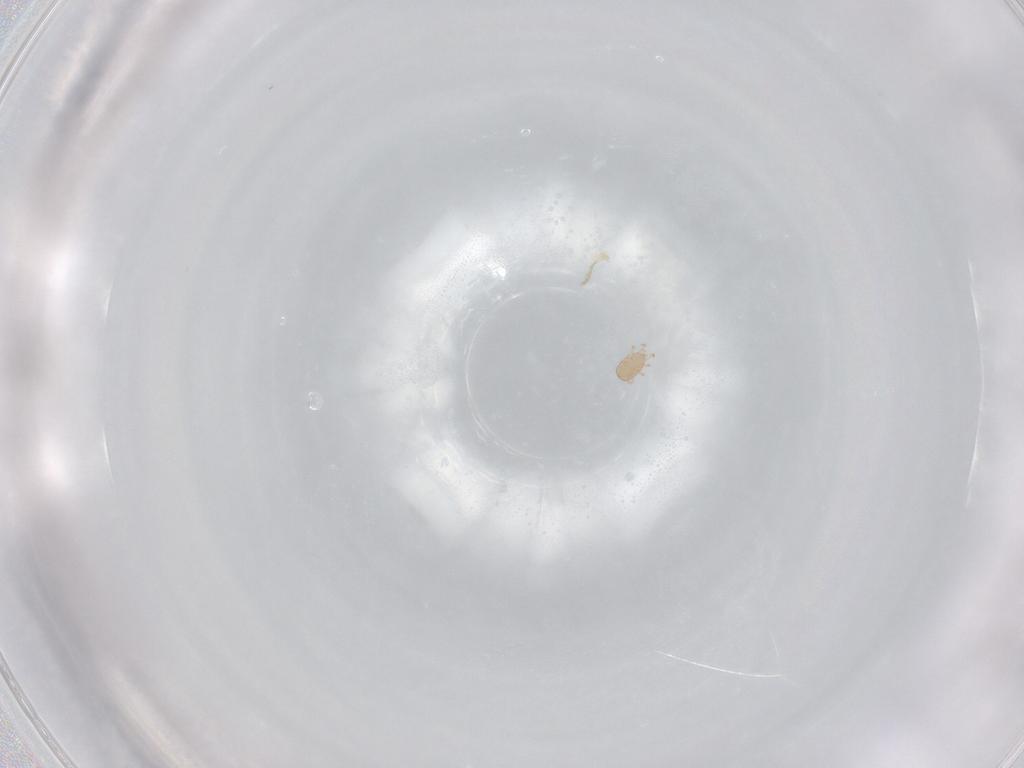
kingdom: Animalia
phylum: Arthropoda
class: Arachnida
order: Mesostigmata
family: Phytoseiidae
